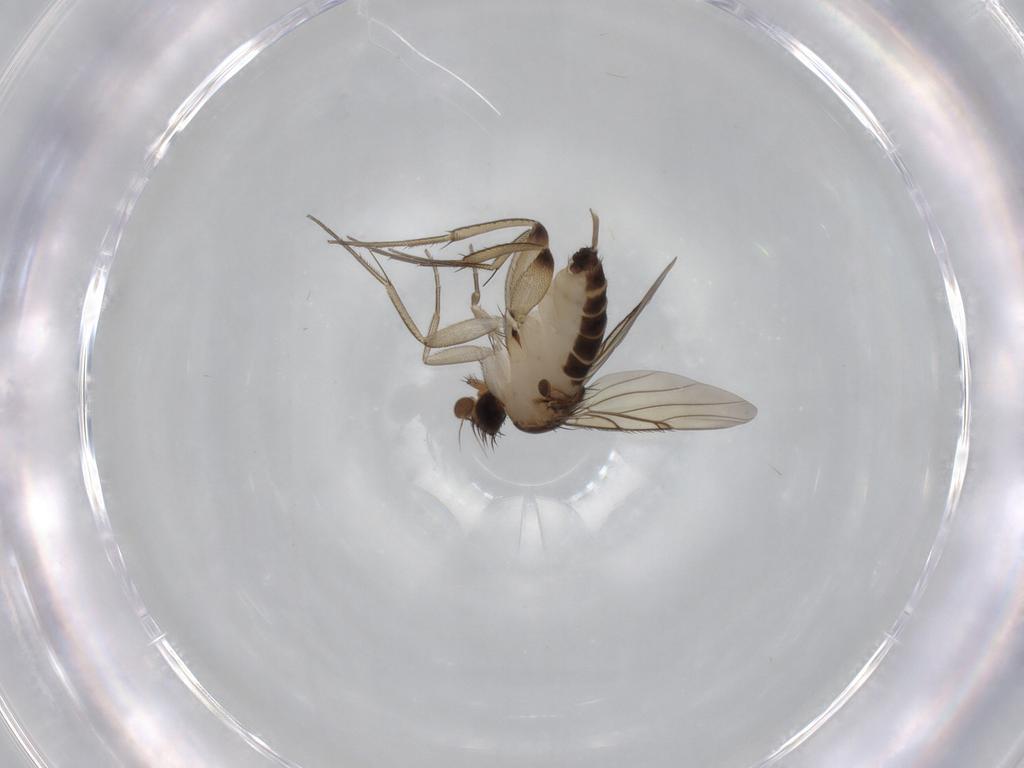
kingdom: Animalia
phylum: Arthropoda
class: Insecta
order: Diptera
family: Phoridae
